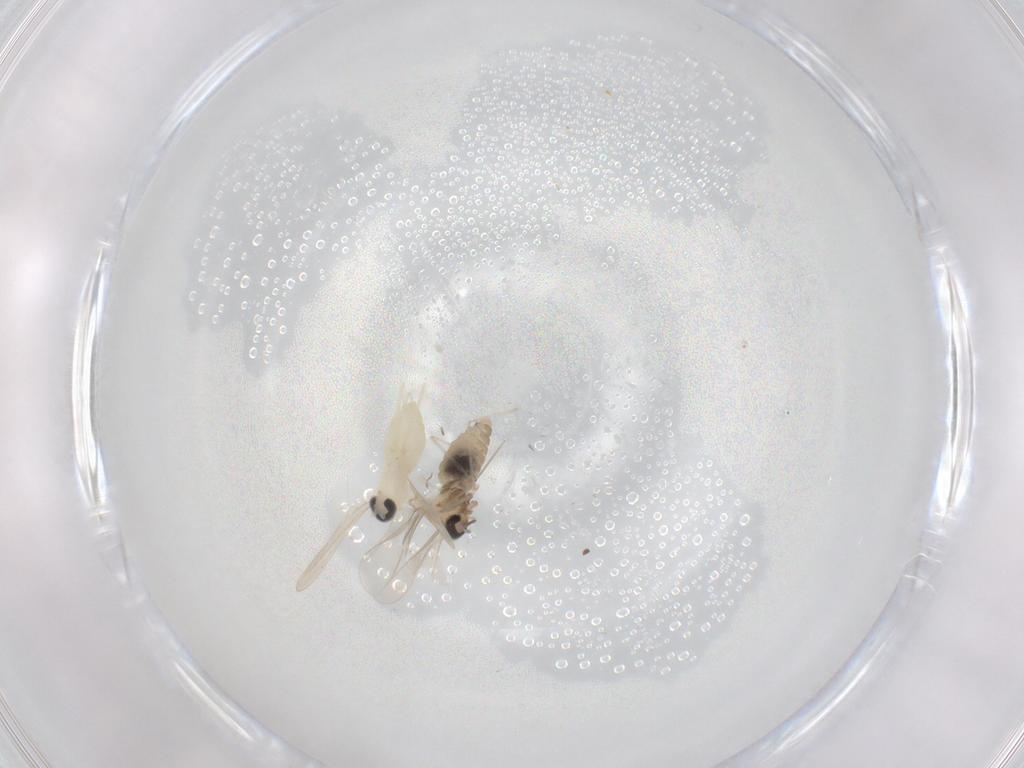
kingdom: Animalia
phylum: Arthropoda
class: Insecta
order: Diptera
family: Cecidomyiidae
